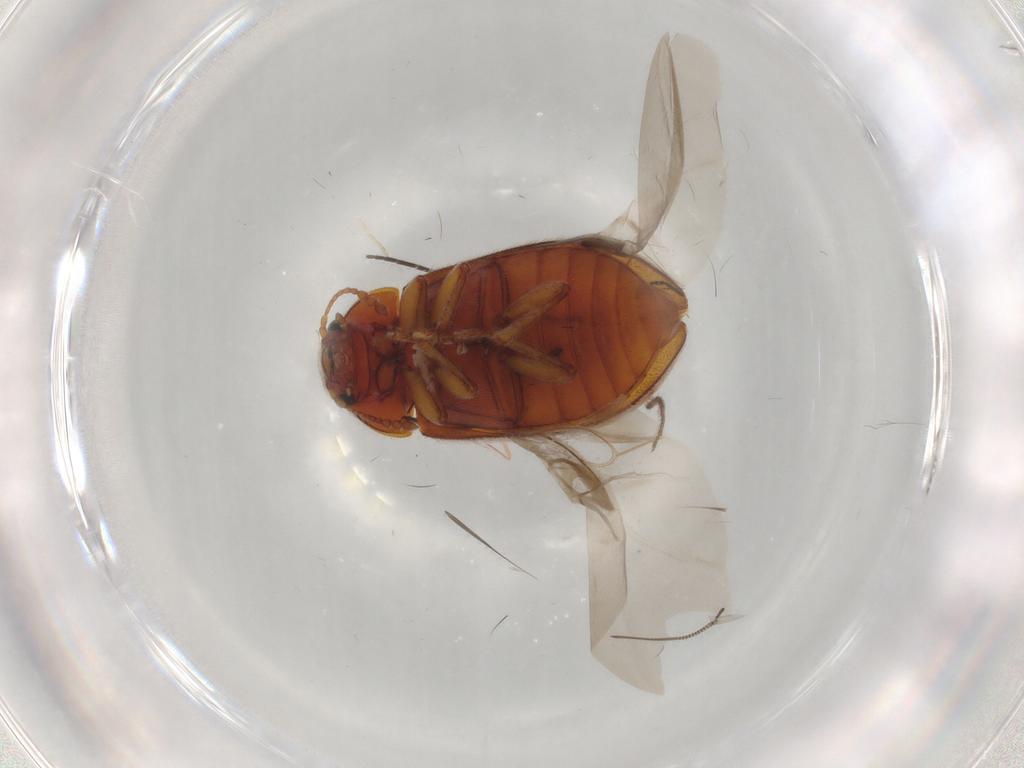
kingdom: Animalia
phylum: Arthropoda
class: Insecta
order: Coleoptera
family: Byturidae
